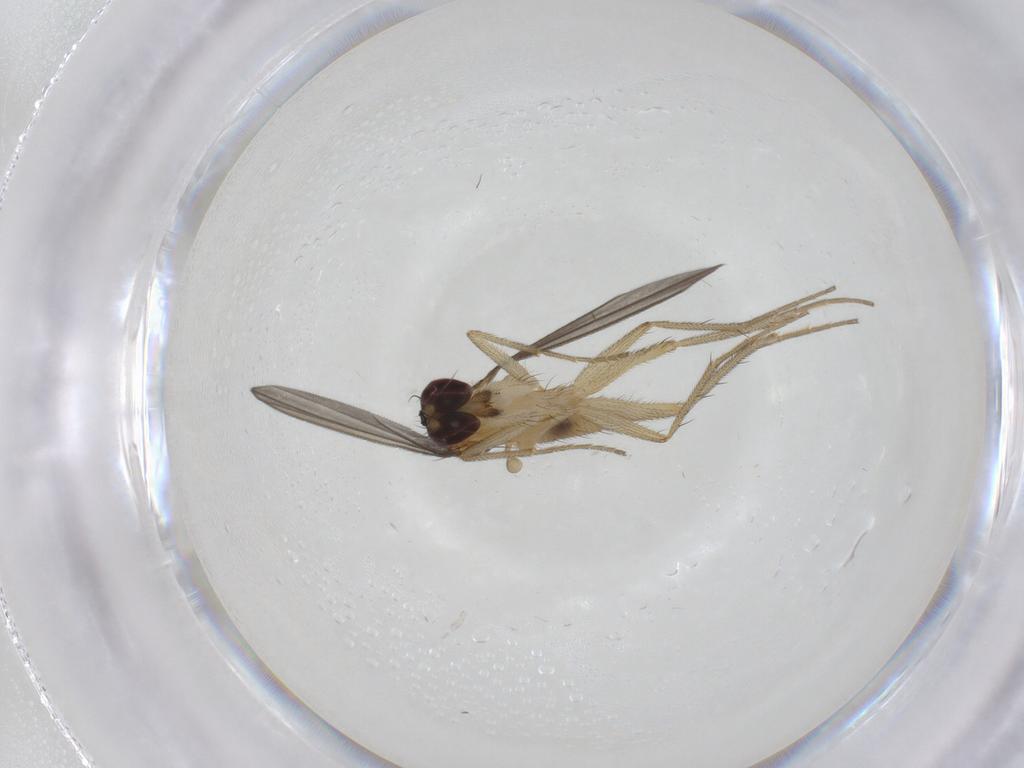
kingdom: Animalia
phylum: Arthropoda
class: Insecta
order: Diptera
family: Dolichopodidae
